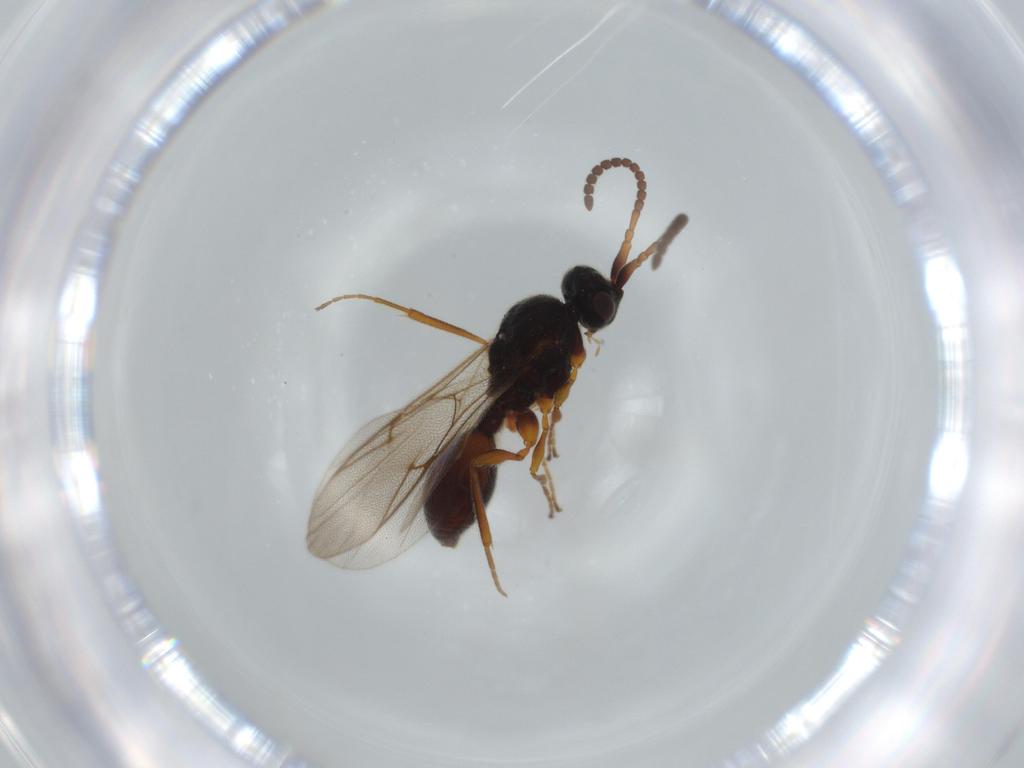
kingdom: Animalia
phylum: Arthropoda
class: Insecta
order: Hymenoptera
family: Diapriidae
